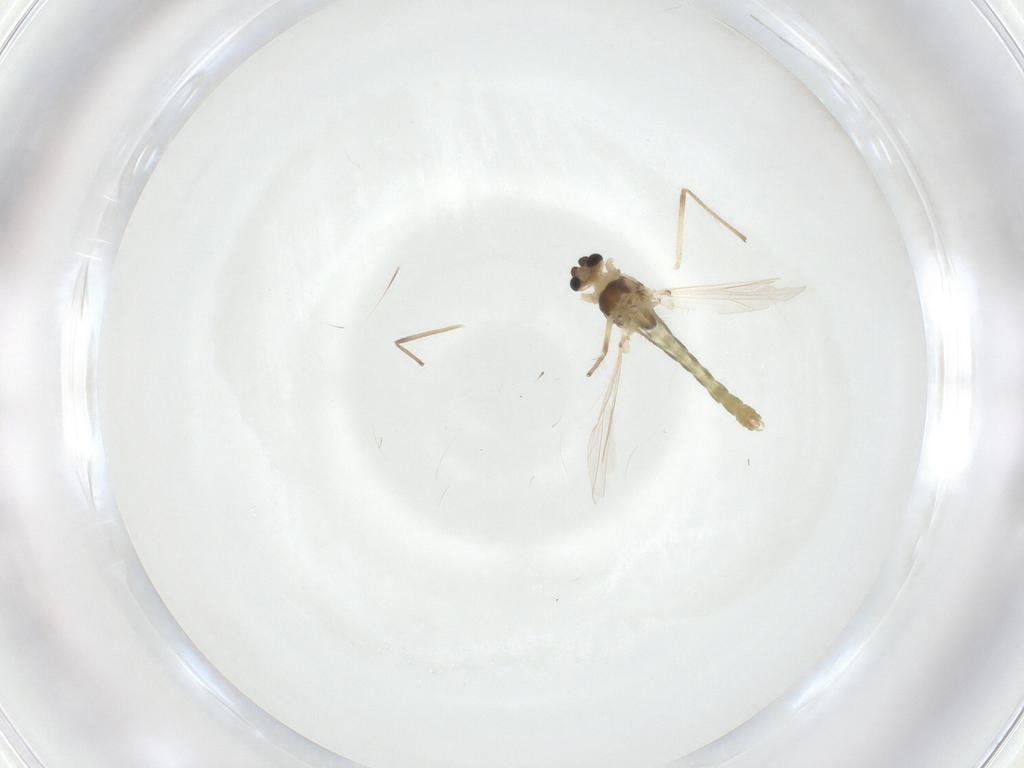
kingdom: Animalia
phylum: Arthropoda
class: Insecta
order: Diptera
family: Chironomidae
